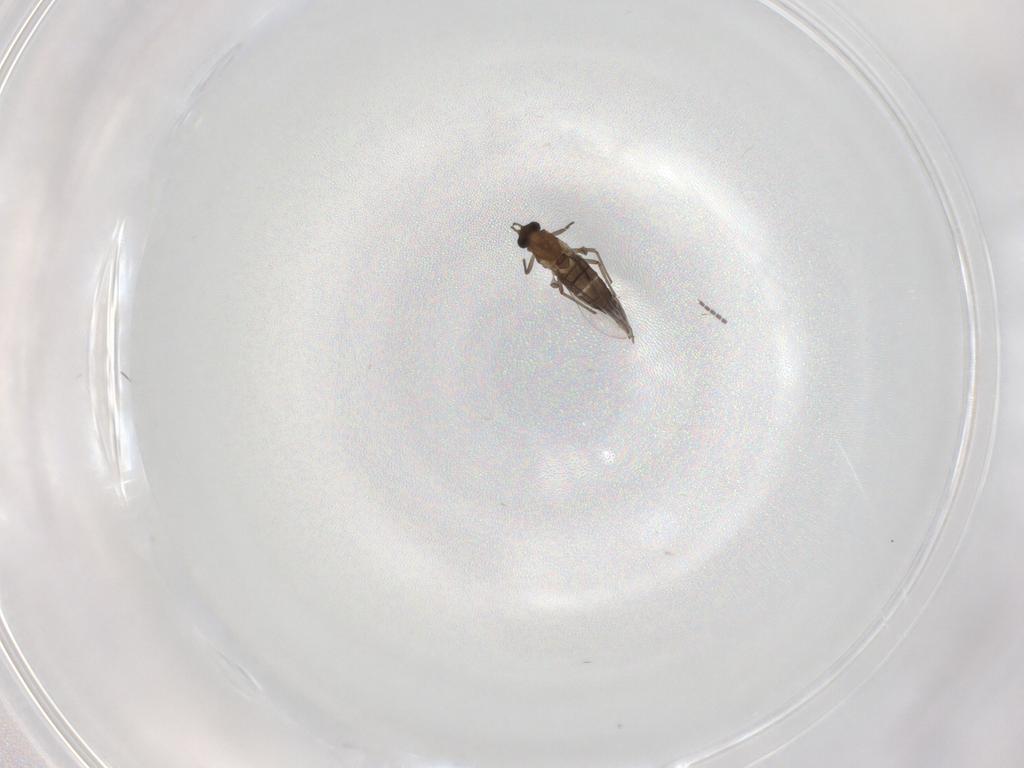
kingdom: Animalia
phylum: Arthropoda
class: Insecta
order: Diptera
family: Chironomidae
